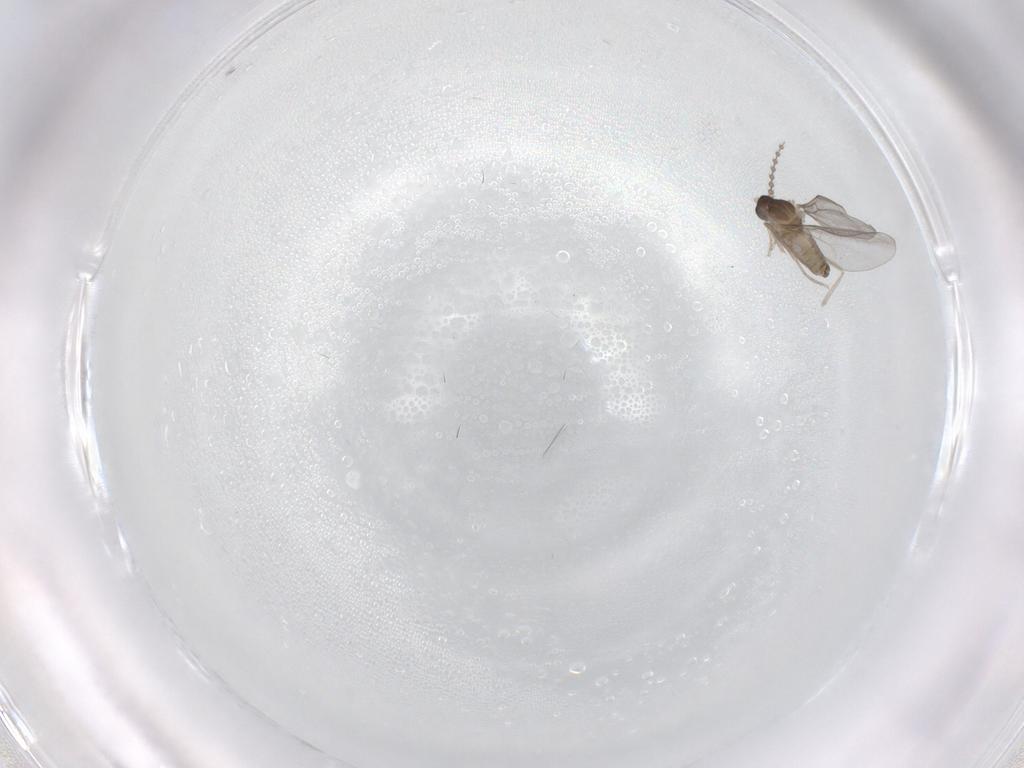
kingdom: Animalia
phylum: Arthropoda
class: Insecta
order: Diptera
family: Cecidomyiidae
